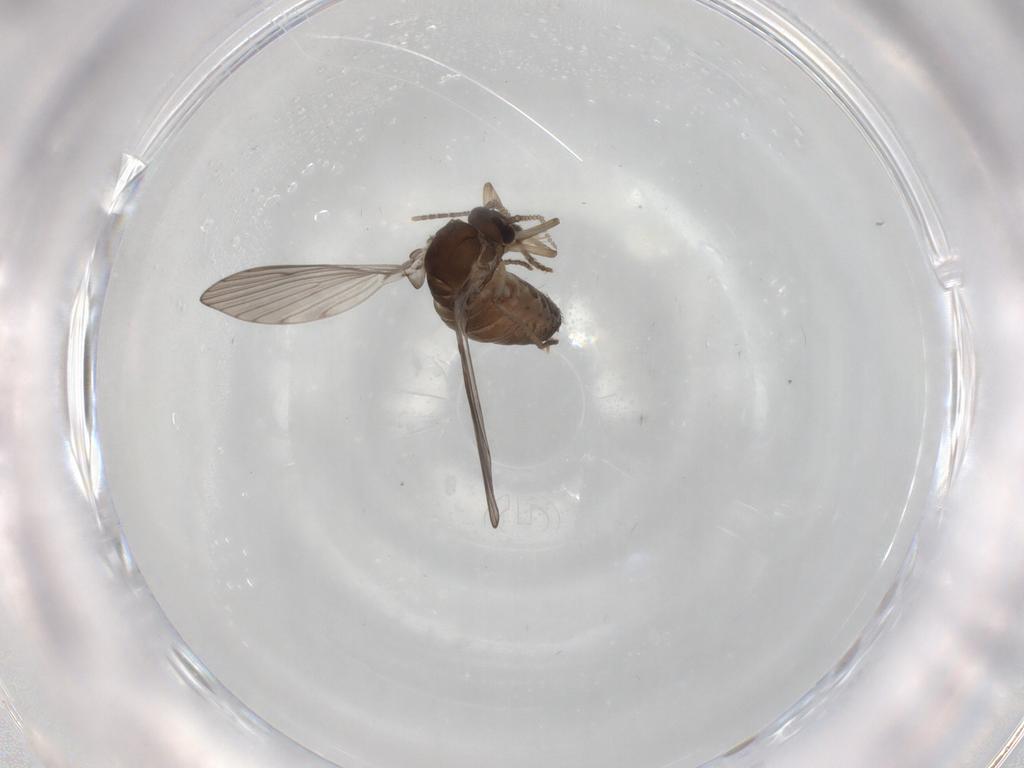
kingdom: Animalia
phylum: Arthropoda
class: Insecta
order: Diptera
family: Psychodidae
